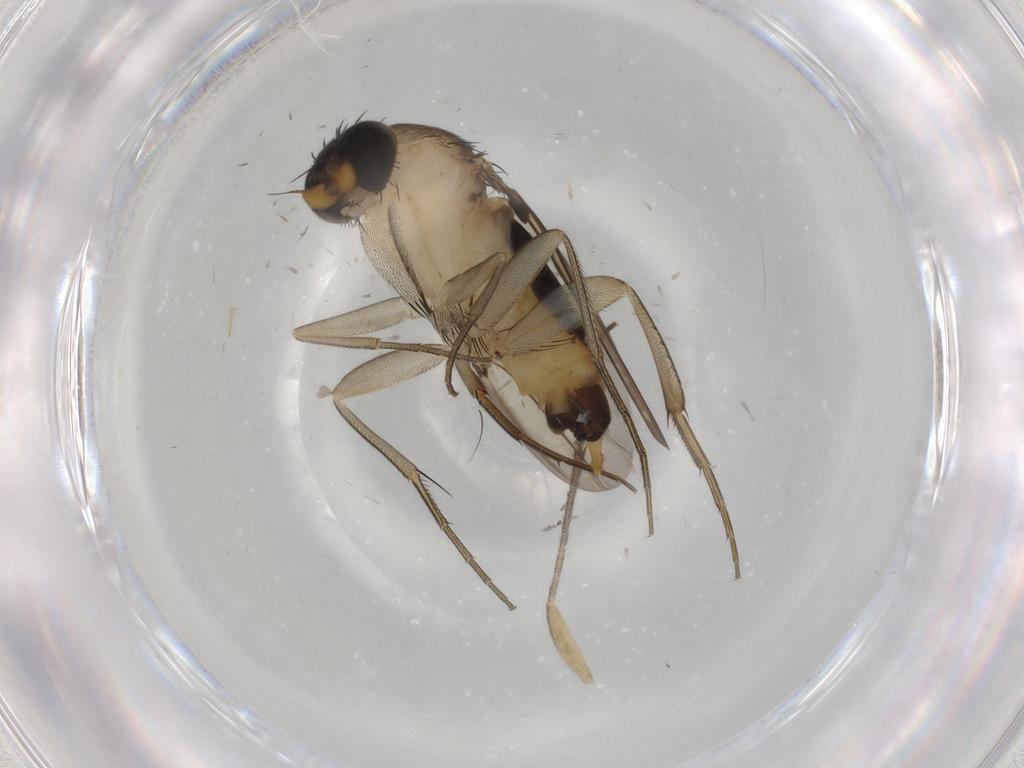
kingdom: Animalia
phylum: Arthropoda
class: Insecta
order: Diptera
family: Phoridae
